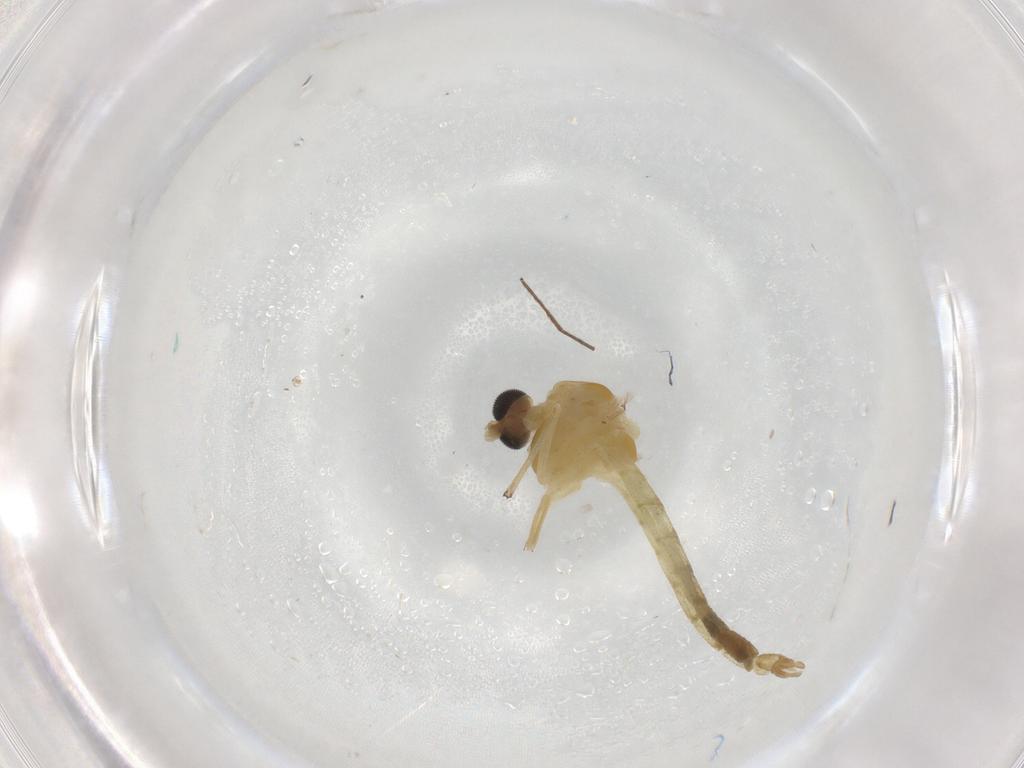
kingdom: Animalia
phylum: Arthropoda
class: Insecta
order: Diptera
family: Chironomidae
